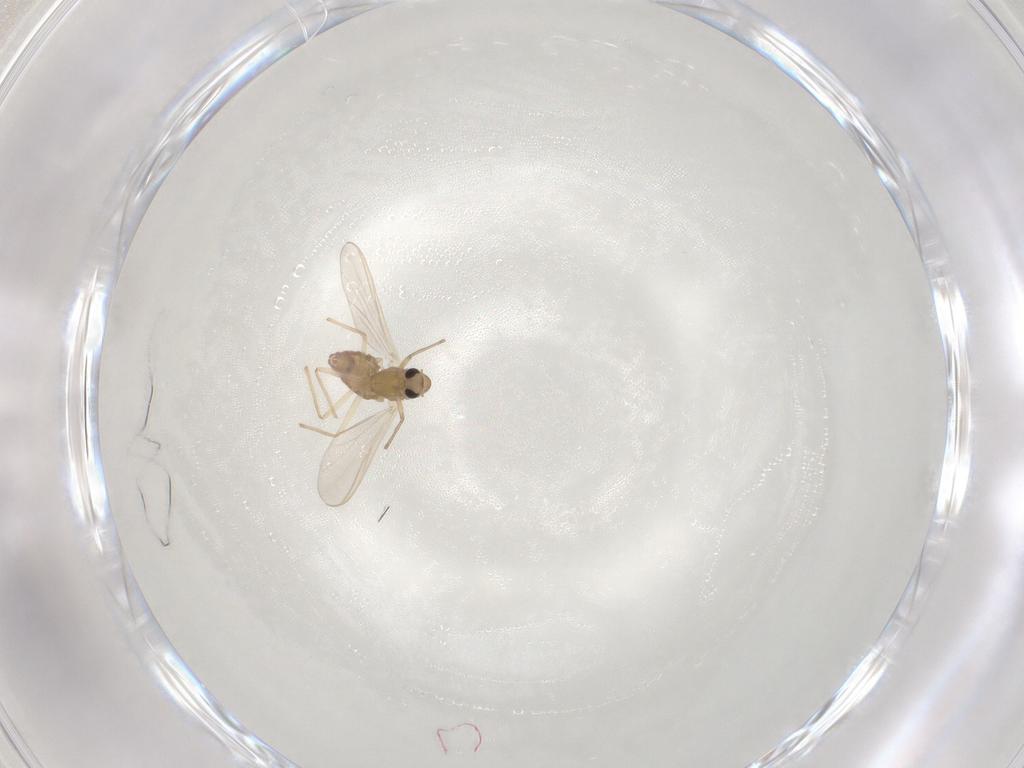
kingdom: Animalia
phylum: Arthropoda
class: Insecta
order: Diptera
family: Chironomidae
